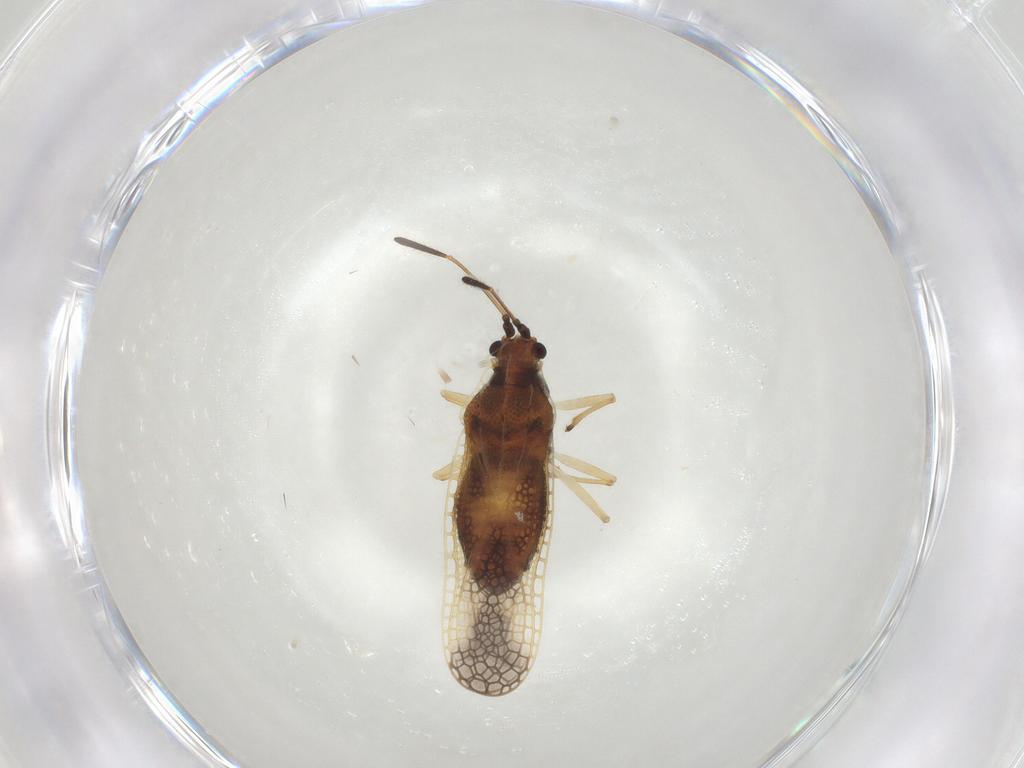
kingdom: Animalia
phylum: Arthropoda
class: Insecta
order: Hemiptera
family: Tingidae
